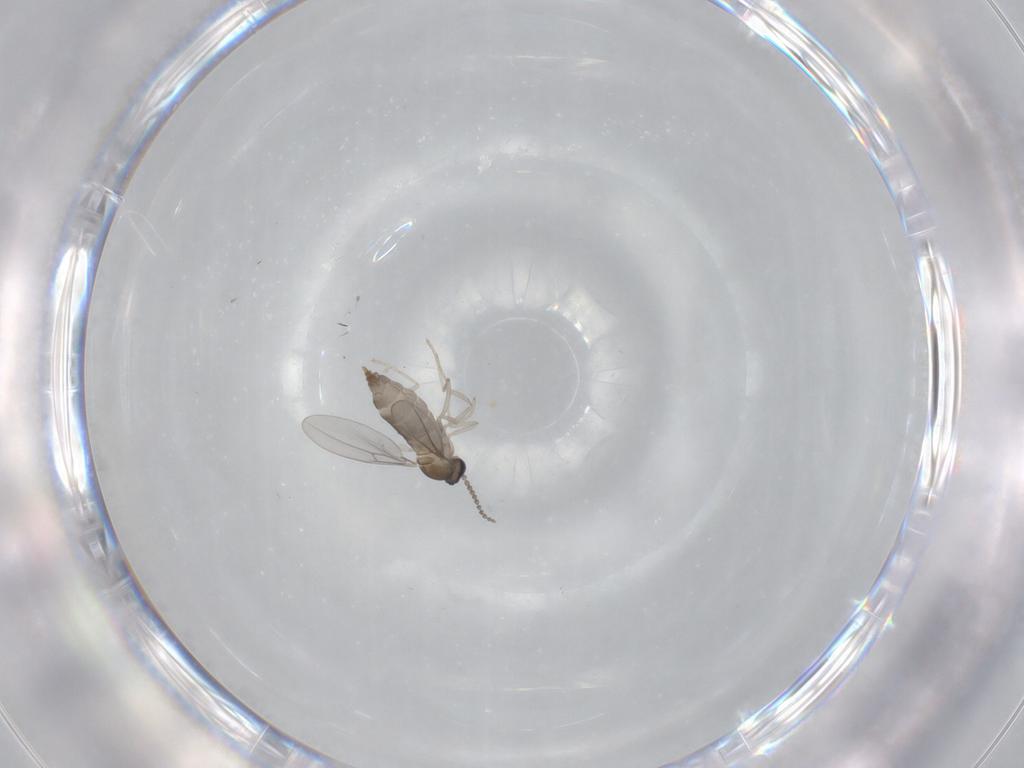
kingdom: Animalia
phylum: Arthropoda
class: Insecta
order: Diptera
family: Cecidomyiidae
